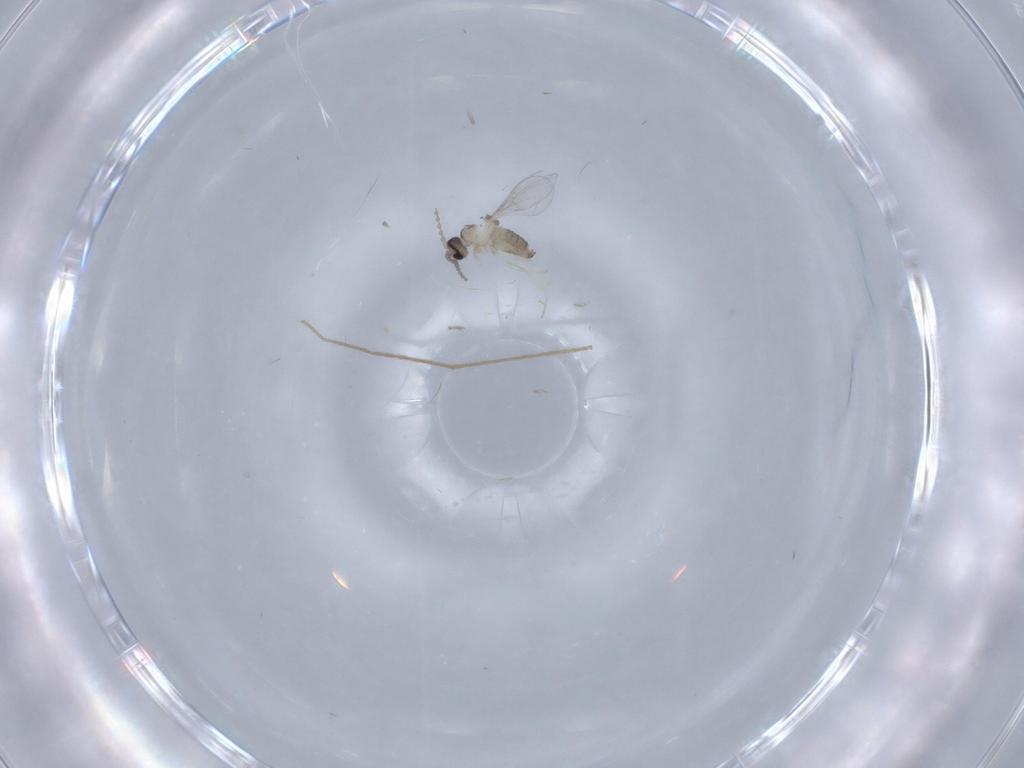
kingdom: Animalia
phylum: Arthropoda
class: Insecta
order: Diptera
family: Cecidomyiidae
